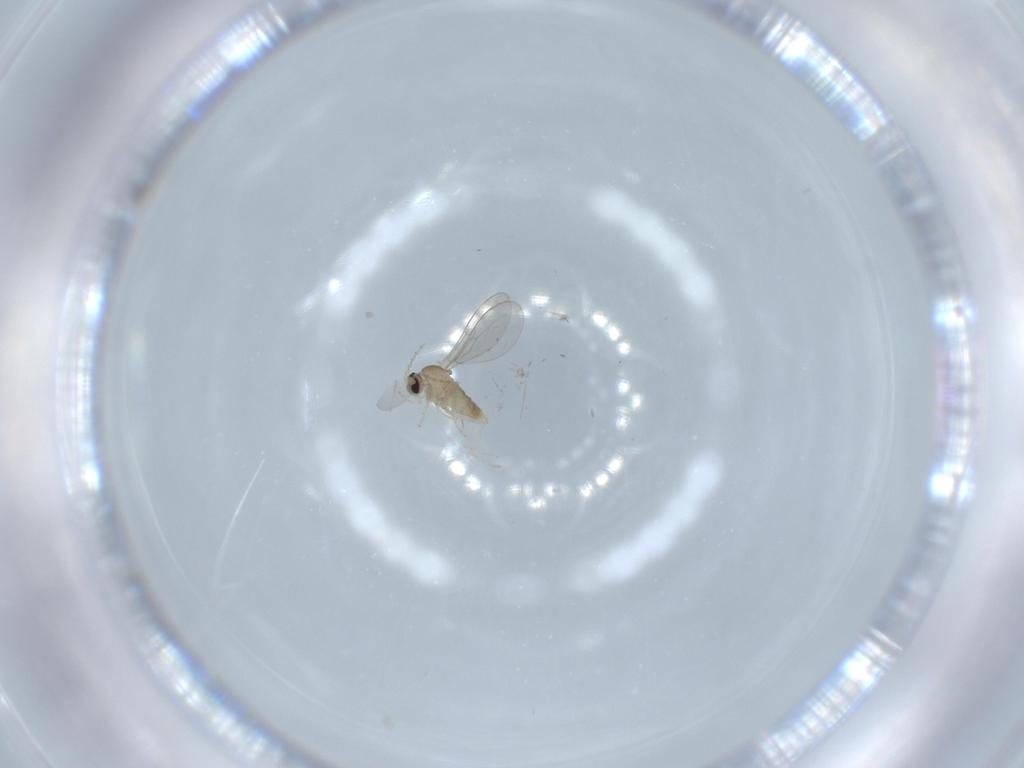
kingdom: Animalia
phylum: Arthropoda
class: Insecta
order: Diptera
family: Cecidomyiidae
